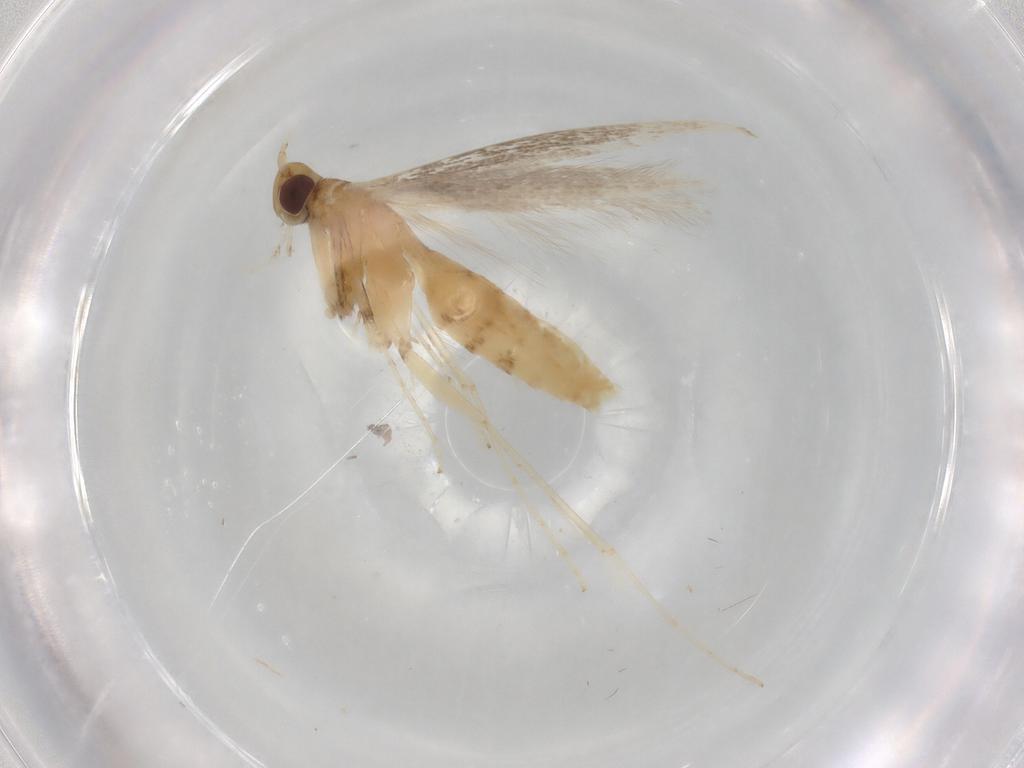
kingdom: Animalia
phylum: Arthropoda
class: Insecta
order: Lepidoptera
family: Gracillariidae
